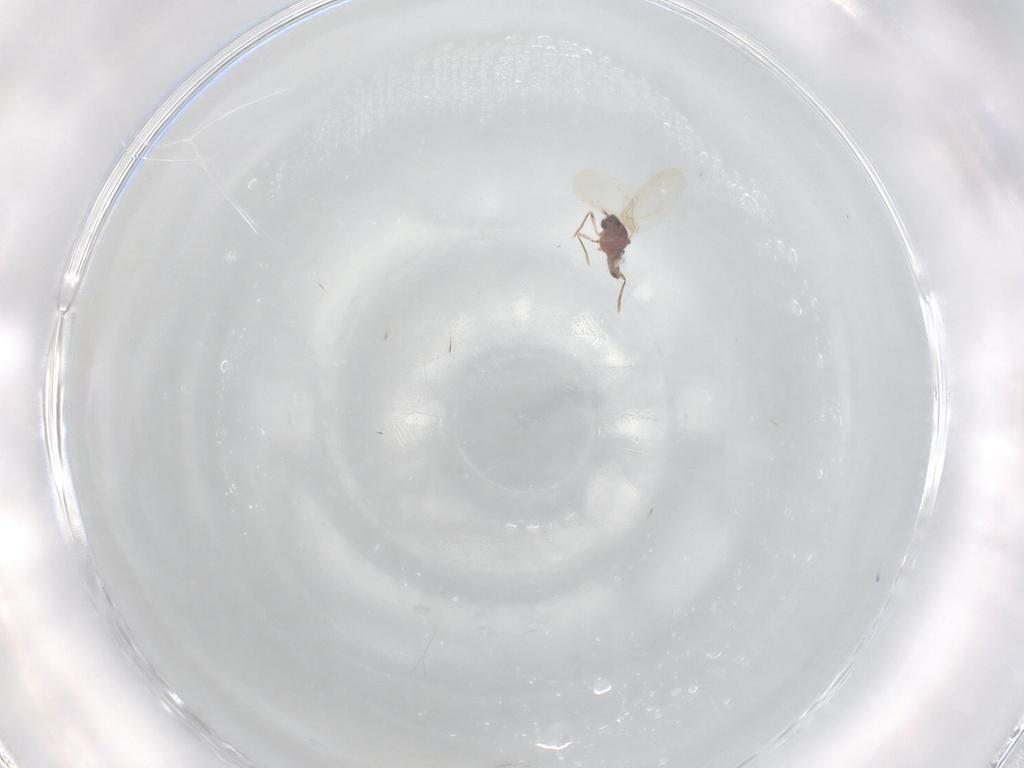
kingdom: Animalia
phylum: Arthropoda
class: Insecta
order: Hemiptera
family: Coccoidea_incertae_sedis
